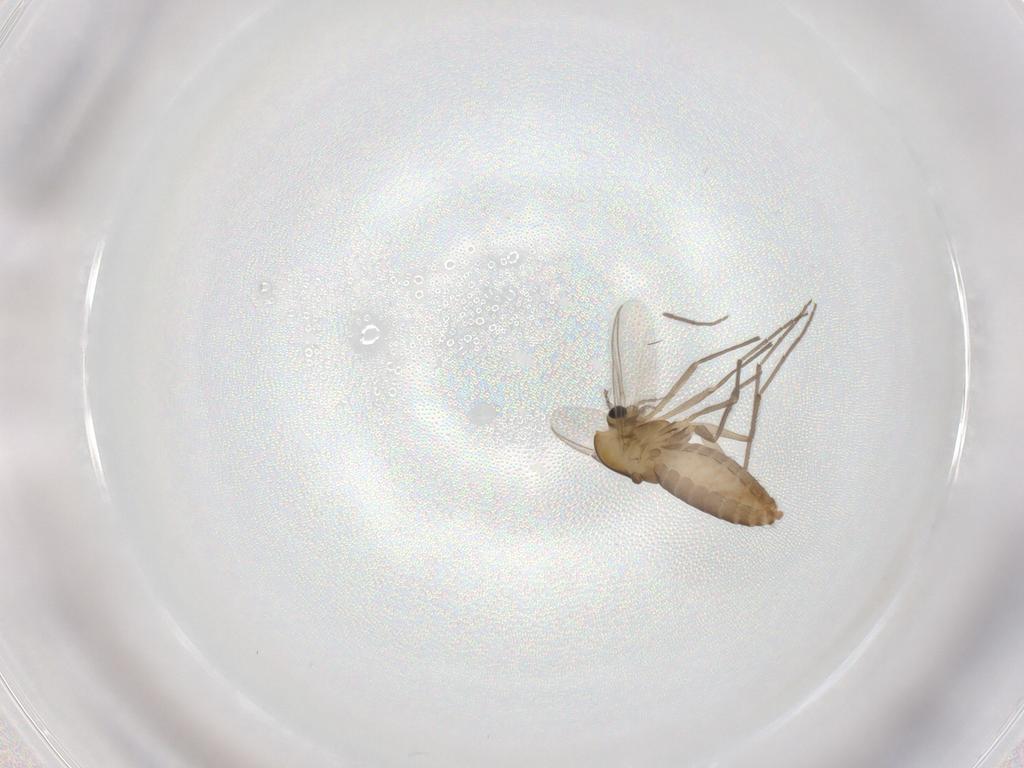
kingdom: Animalia
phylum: Arthropoda
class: Insecta
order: Diptera
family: Chironomidae
